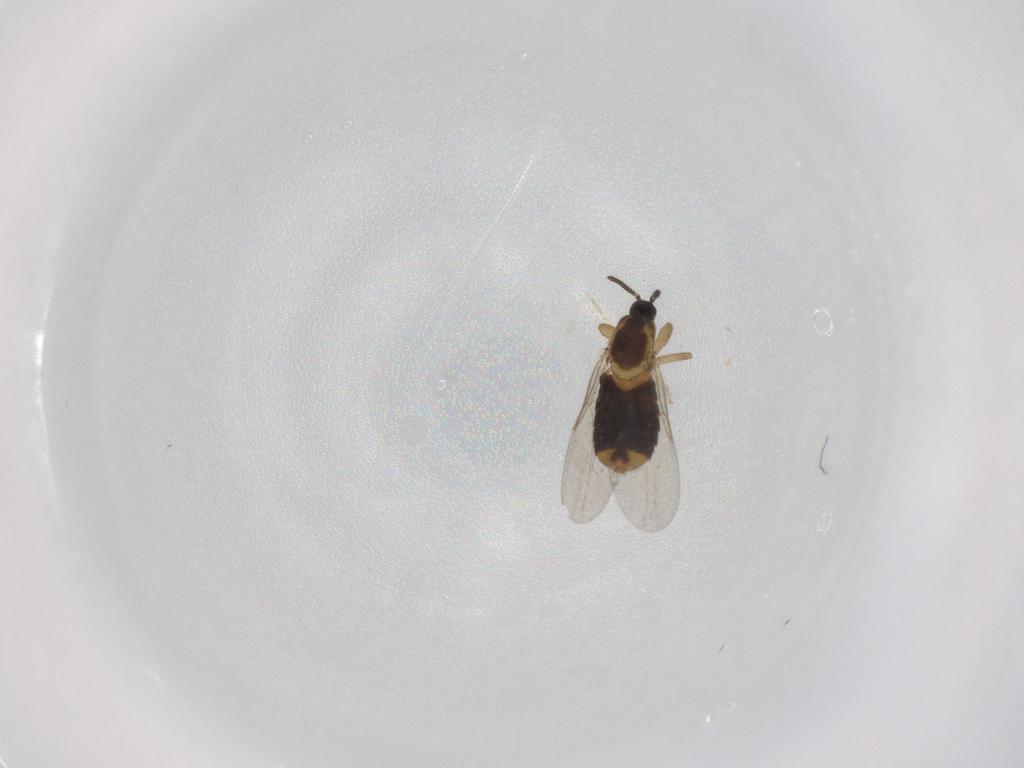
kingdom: Animalia
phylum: Arthropoda
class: Insecta
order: Diptera
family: Scatopsidae
